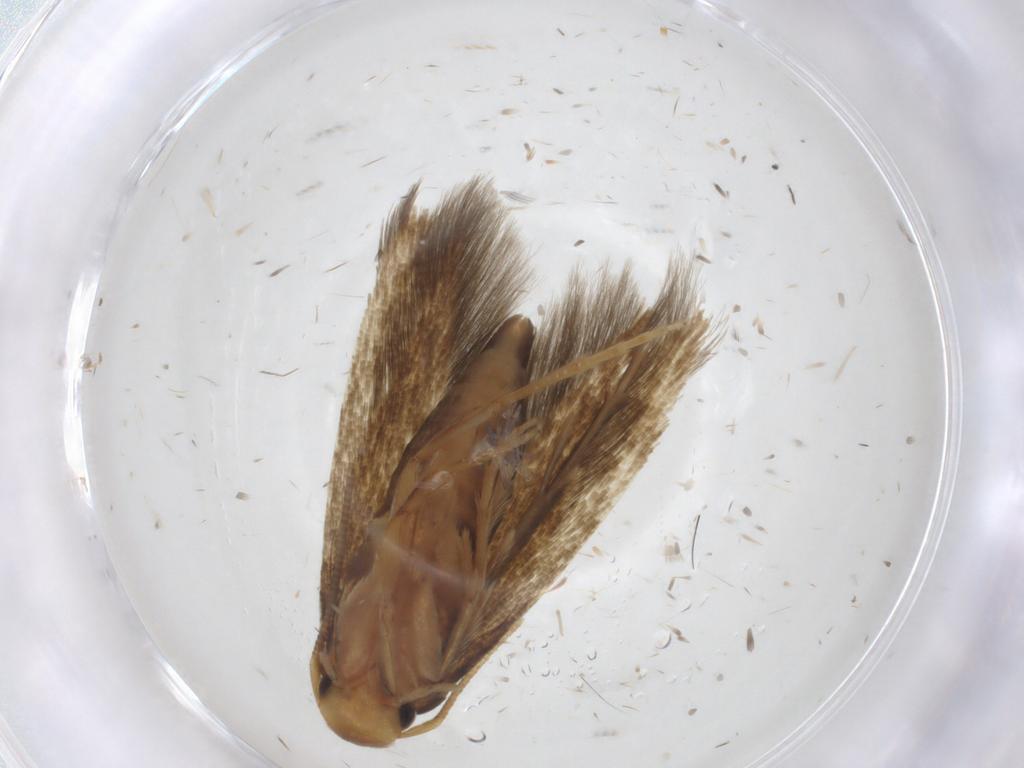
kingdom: Animalia
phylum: Arthropoda
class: Insecta
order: Lepidoptera
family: Tineidae
